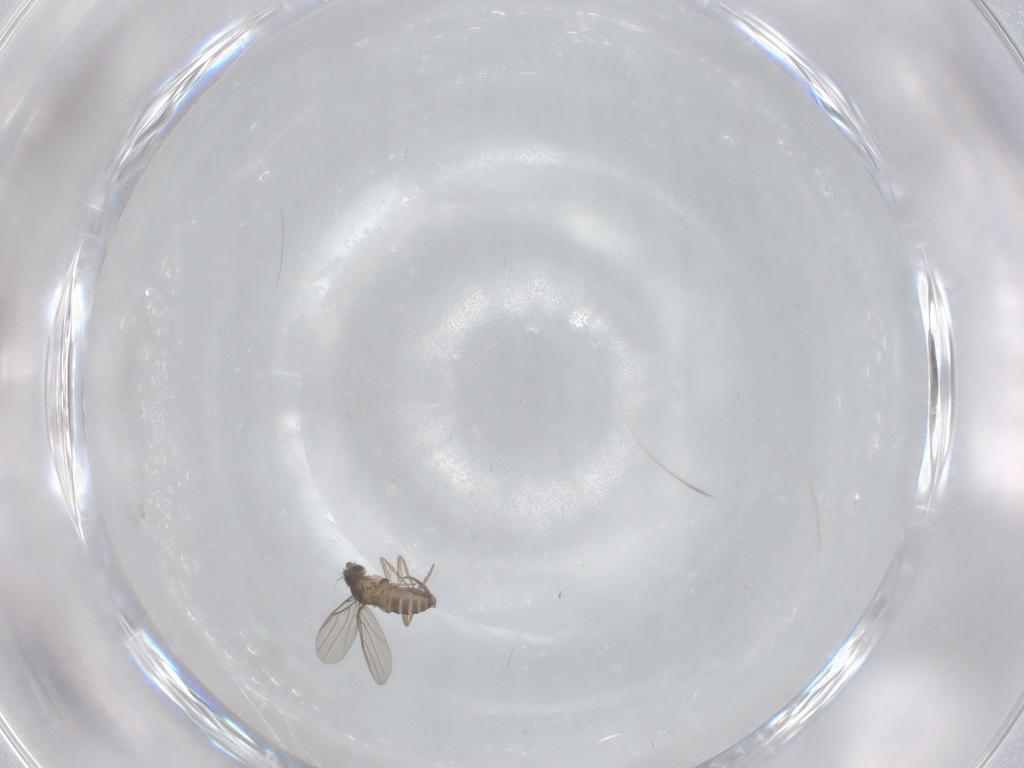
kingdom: Animalia
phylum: Arthropoda
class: Insecta
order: Diptera
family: Phoridae
